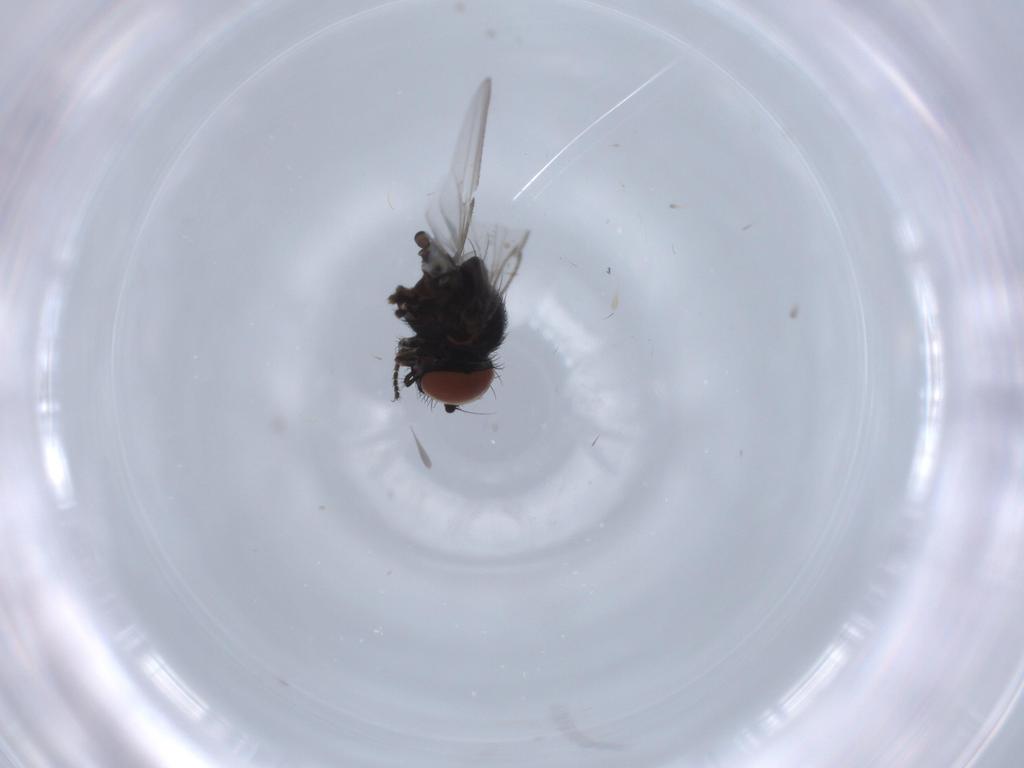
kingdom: Animalia
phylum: Arthropoda
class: Insecta
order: Diptera
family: Milichiidae
